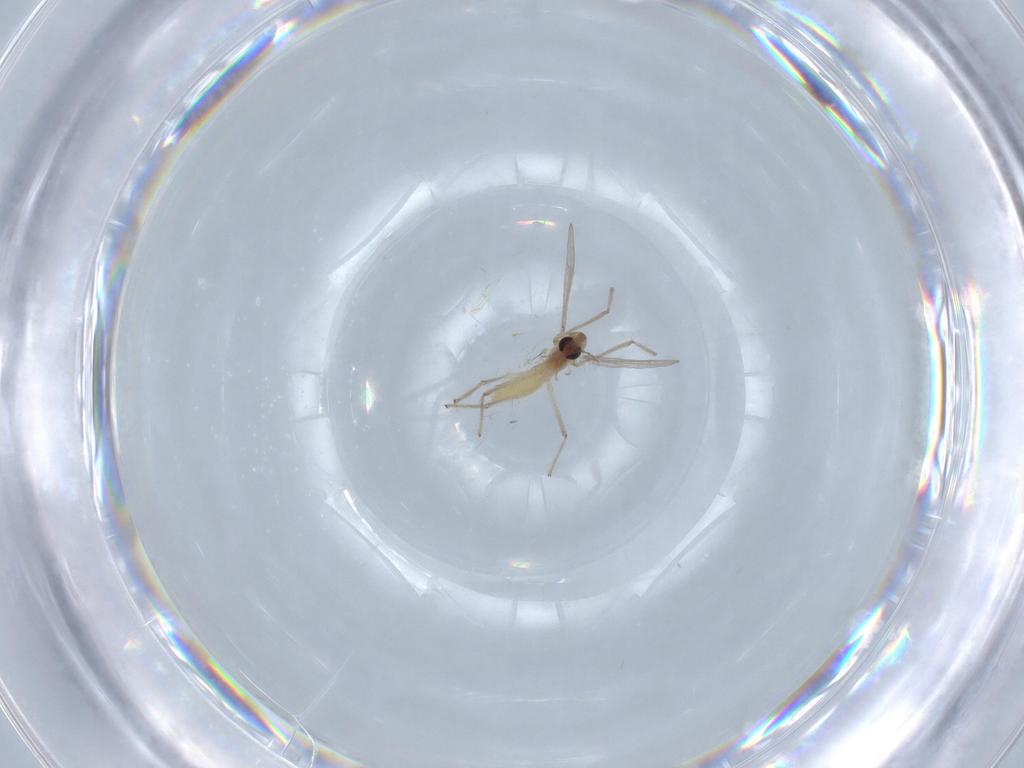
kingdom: Animalia
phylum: Arthropoda
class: Insecta
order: Diptera
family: Chironomidae
